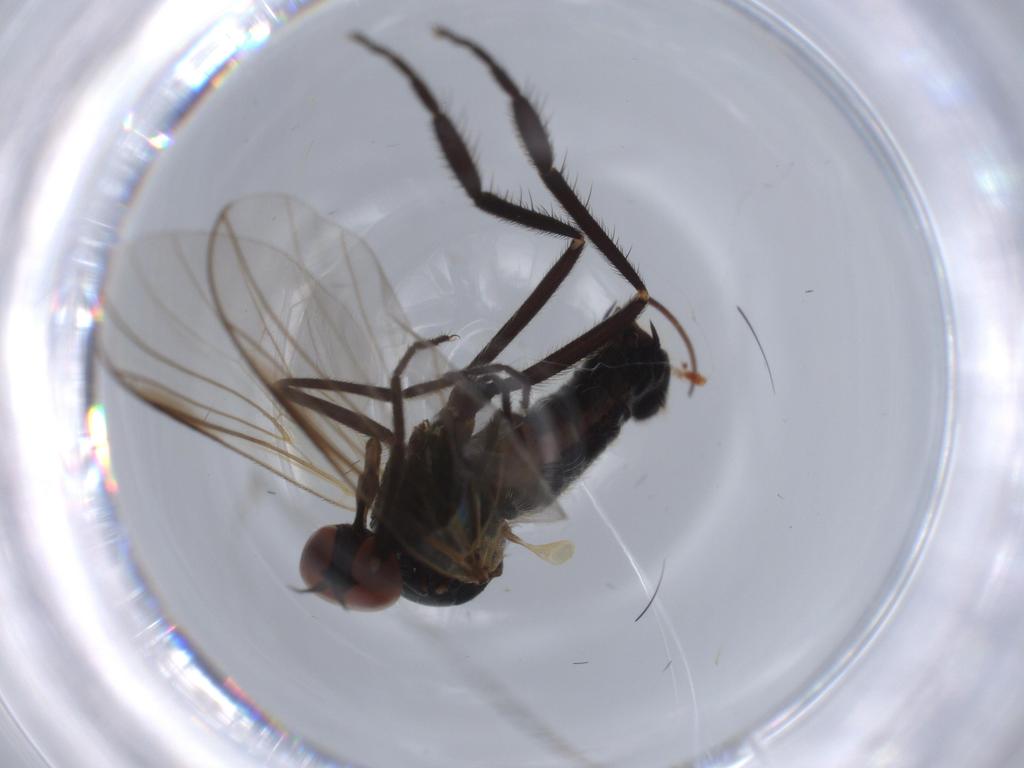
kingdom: Animalia
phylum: Arthropoda
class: Insecta
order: Diptera
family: Empididae
